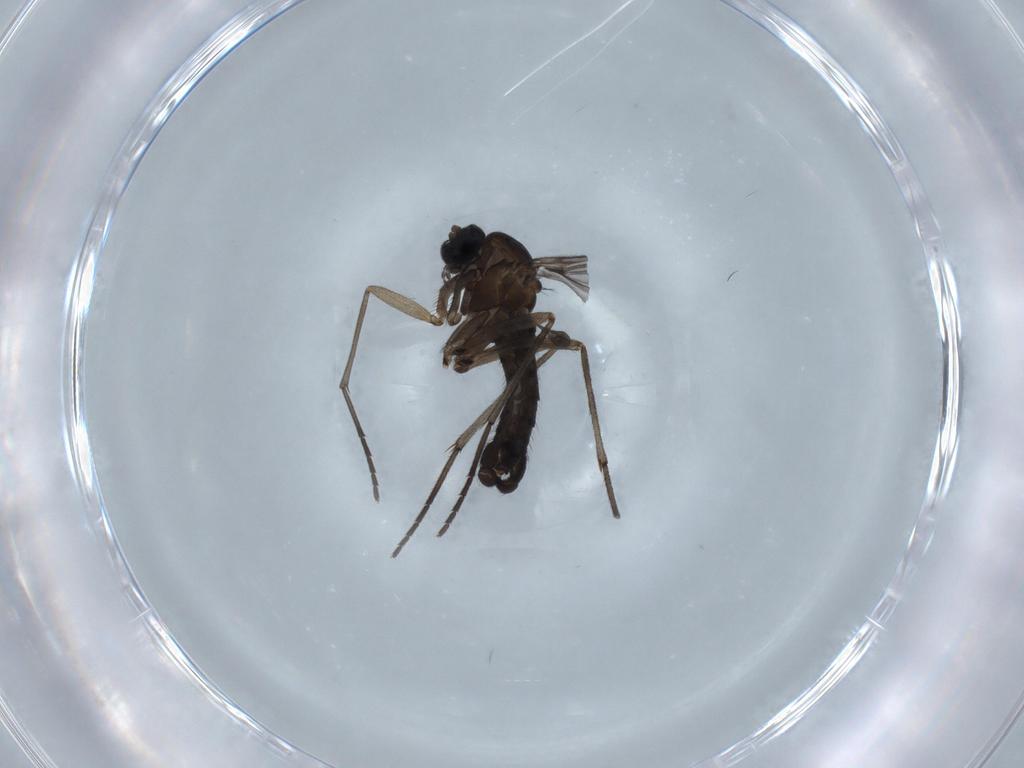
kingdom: Animalia
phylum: Arthropoda
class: Insecta
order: Diptera
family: Sciaridae
